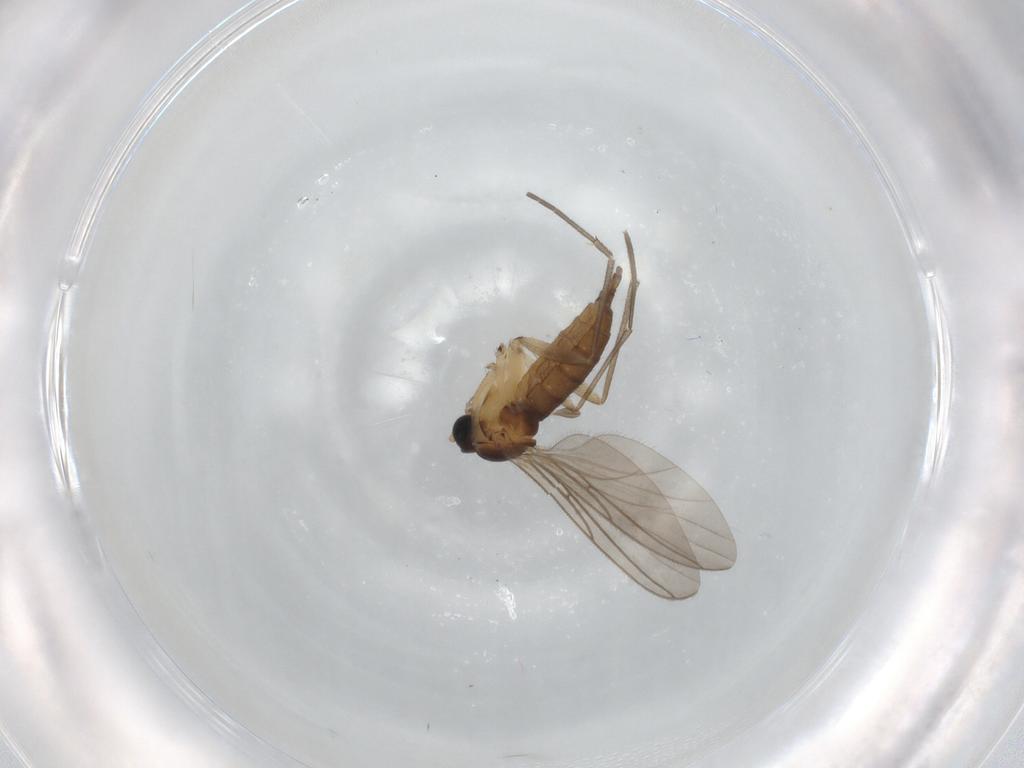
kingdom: Animalia
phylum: Arthropoda
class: Insecta
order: Diptera
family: Sciaridae
